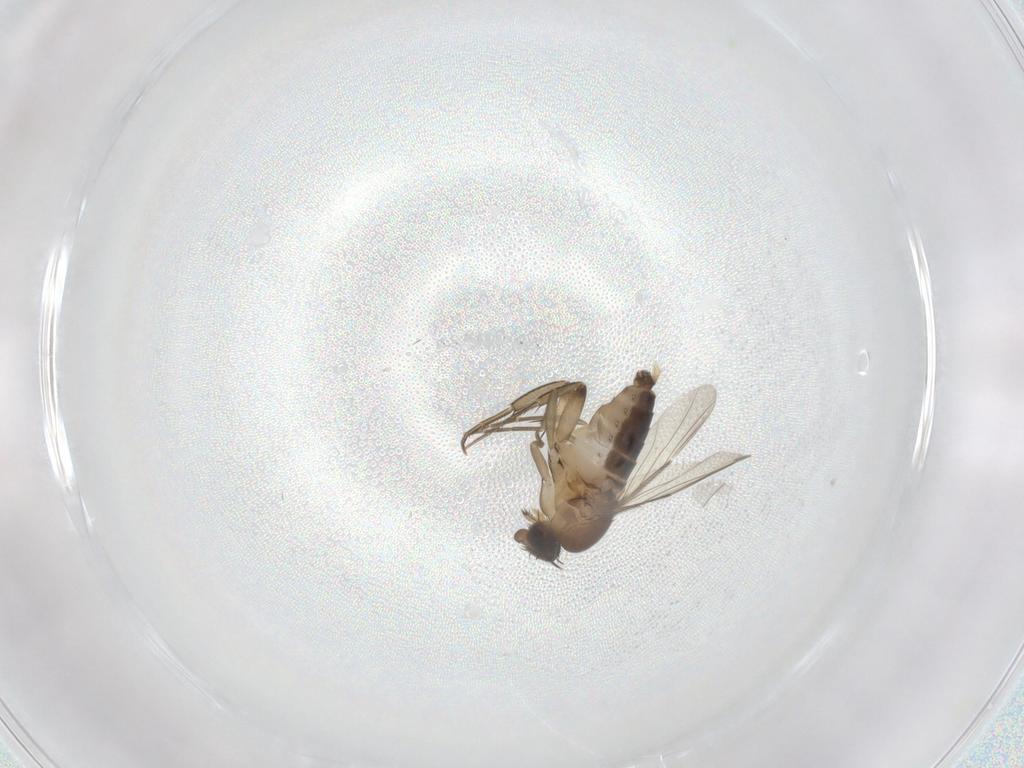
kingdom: Animalia
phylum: Arthropoda
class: Insecta
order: Diptera
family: Phoridae
